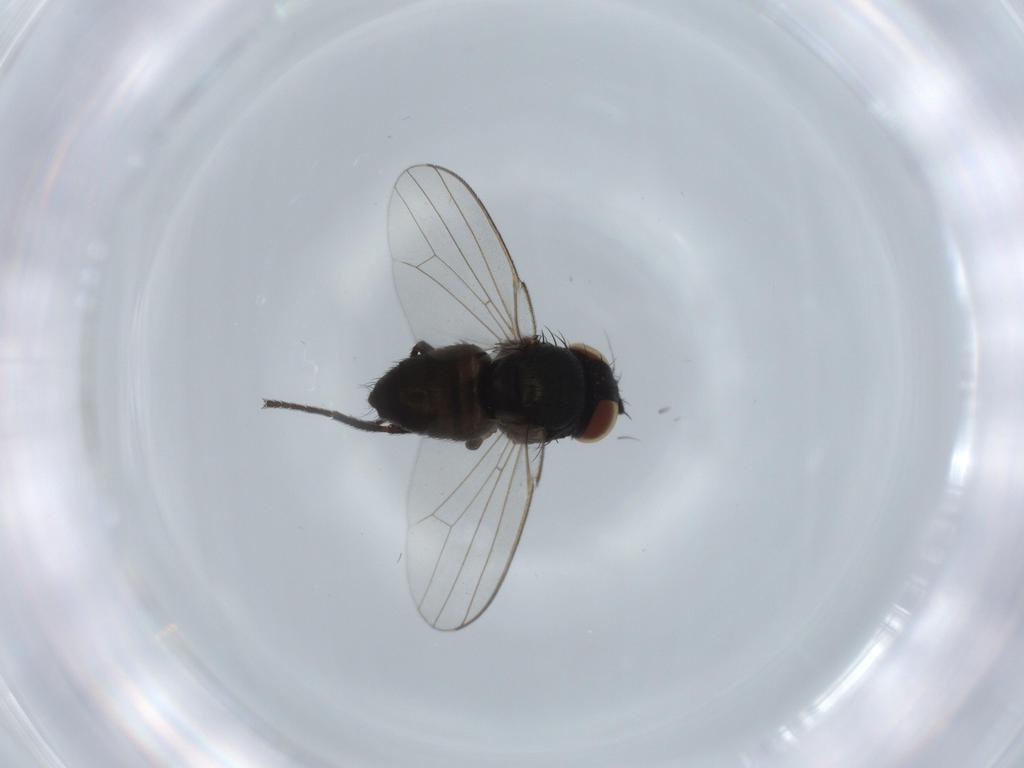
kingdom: Animalia
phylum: Arthropoda
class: Insecta
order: Diptera
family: Milichiidae
